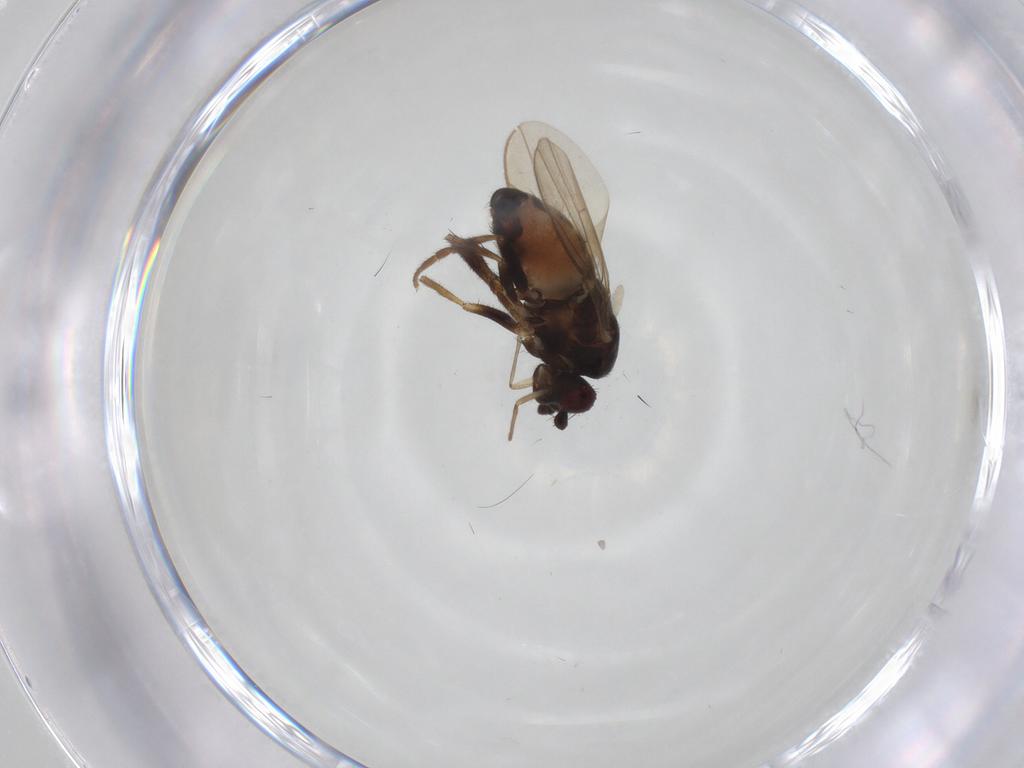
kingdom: Animalia
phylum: Arthropoda
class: Insecta
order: Diptera
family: Sphaeroceridae
